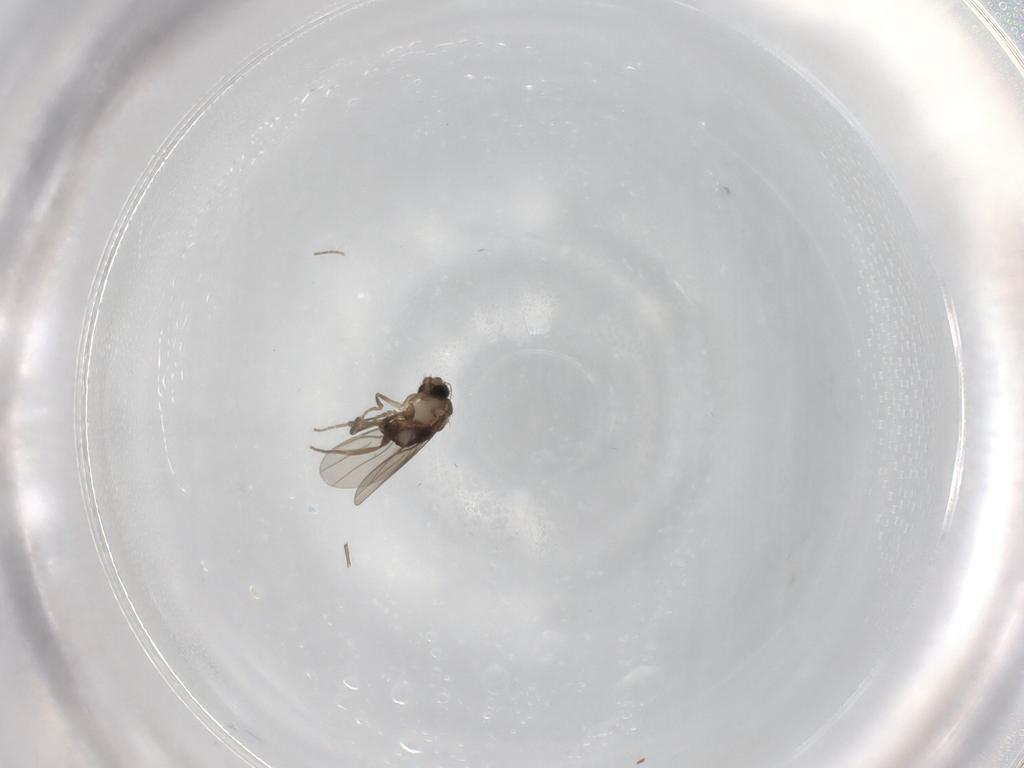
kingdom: Animalia
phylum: Arthropoda
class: Insecta
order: Diptera
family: Phoridae
